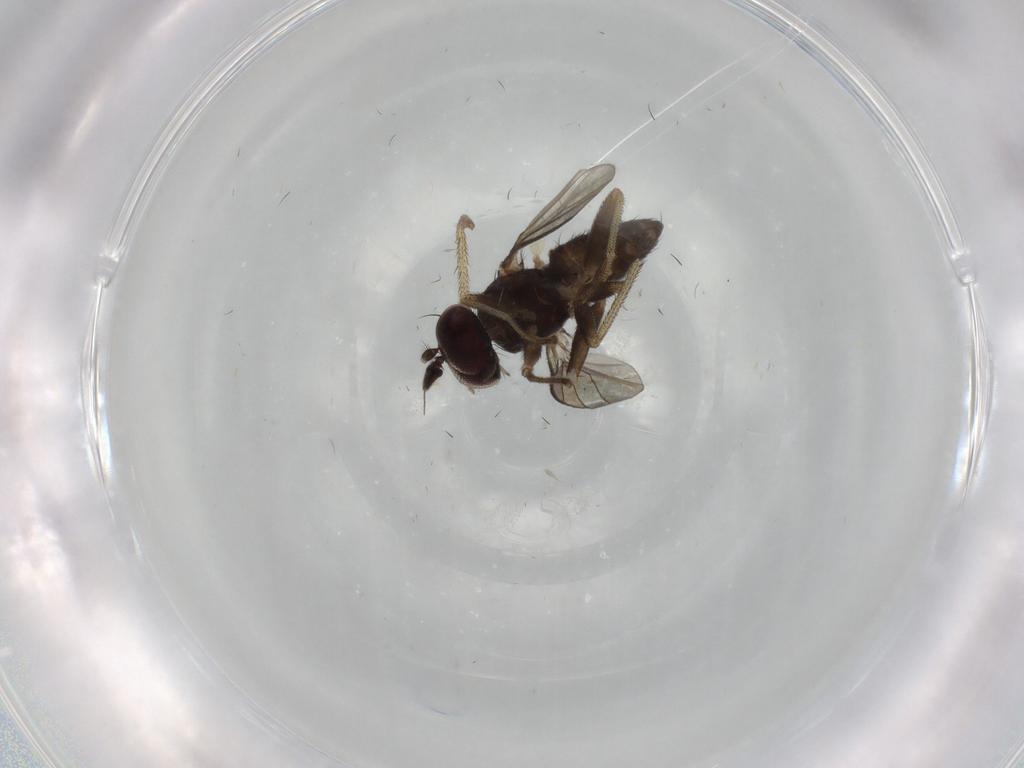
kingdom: Animalia
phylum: Arthropoda
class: Insecta
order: Diptera
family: Dolichopodidae
